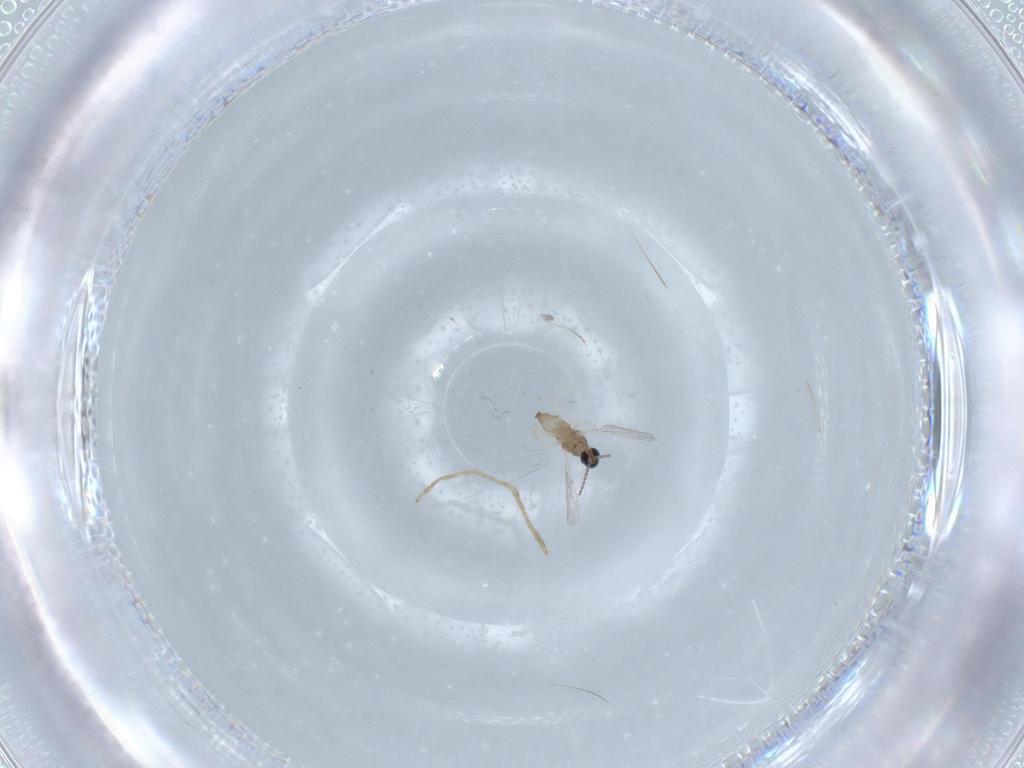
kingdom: Animalia
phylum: Arthropoda
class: Insecta
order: Diptera
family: Cecidomyiidae
